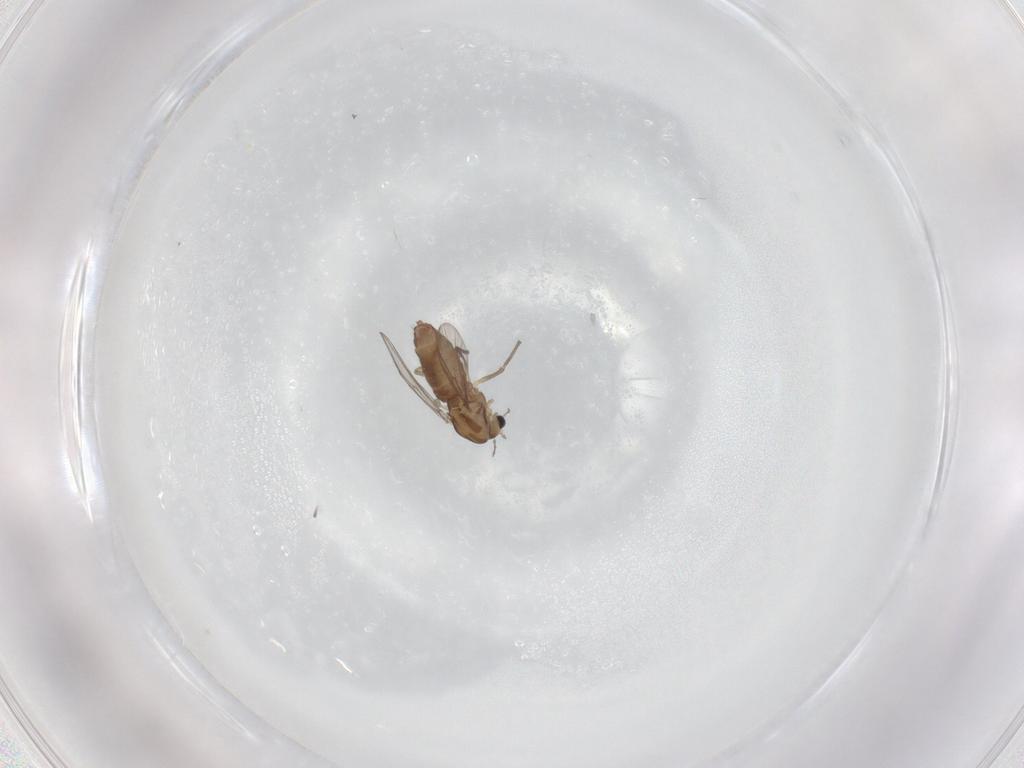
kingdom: Animalia
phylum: Arthropoda
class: Insecta
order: Diptera
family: Chironomidae
